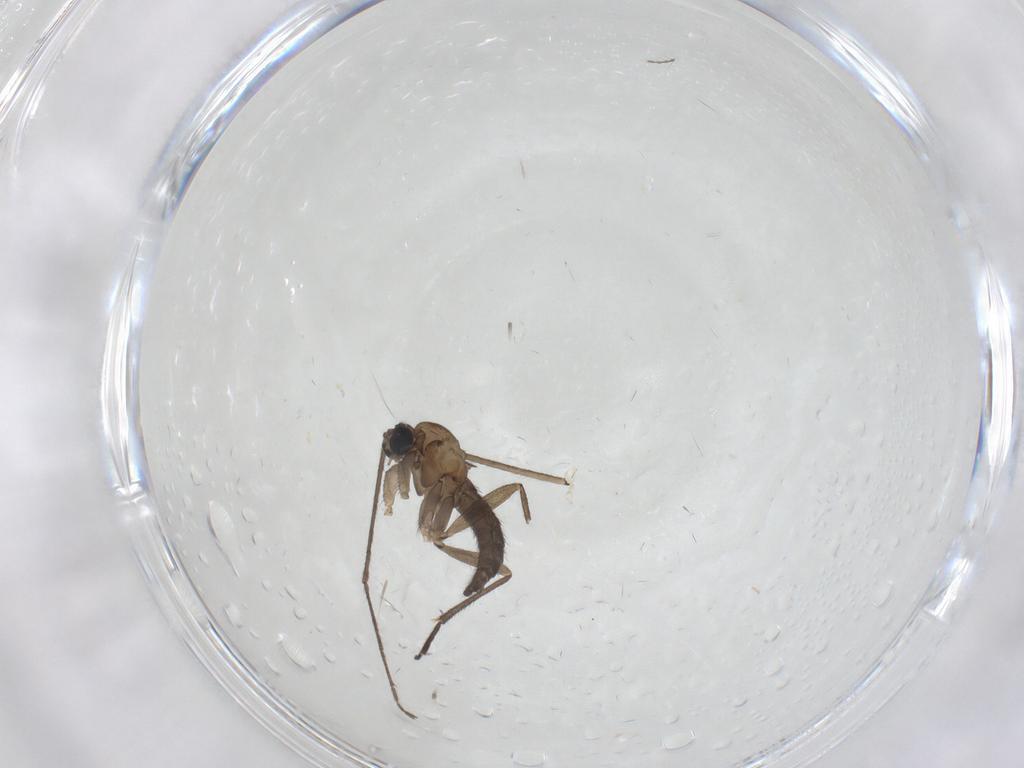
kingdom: Animalia
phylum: Arthropoda
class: Insecta
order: Diptera
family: Sciaridae
